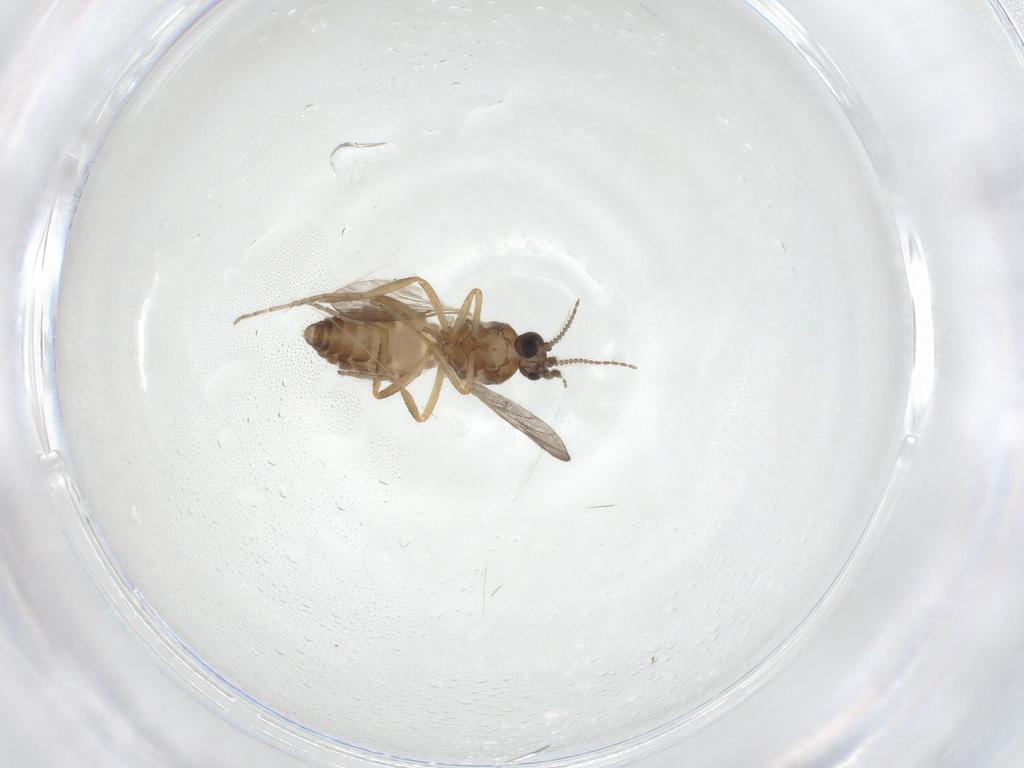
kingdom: Animalia
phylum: Arthropoda
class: Insecta
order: Diptera
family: Ceratopogonidae
